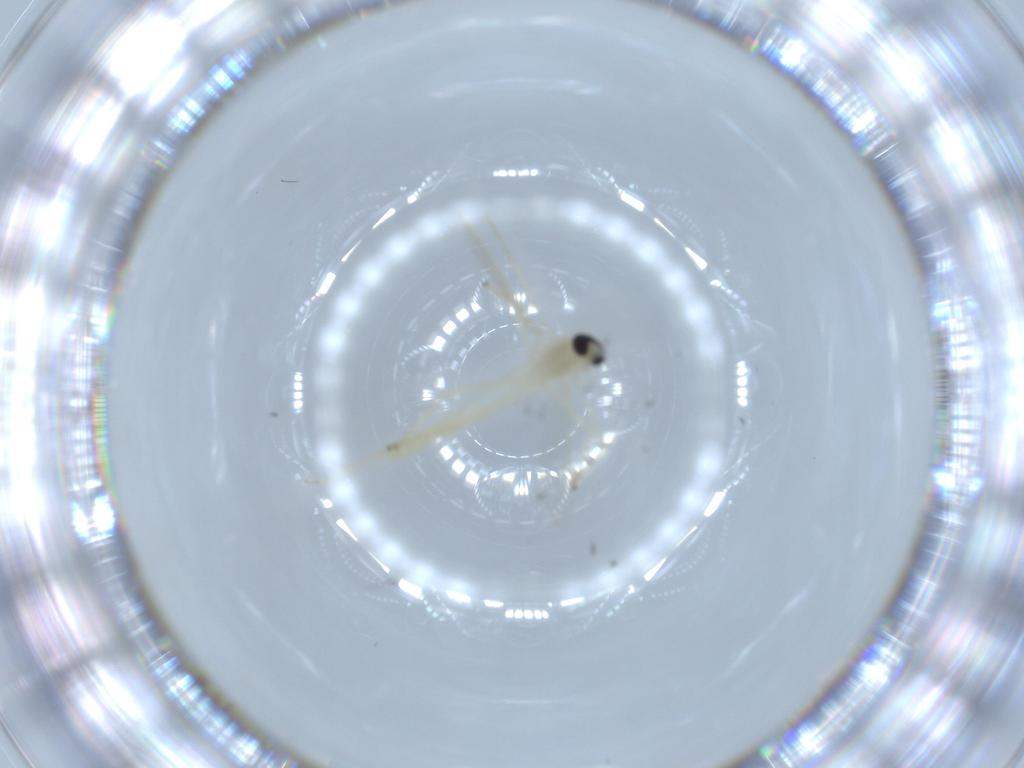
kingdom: Animalia
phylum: Arthropoda
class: Insecta
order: Diptera
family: Chironomidae
